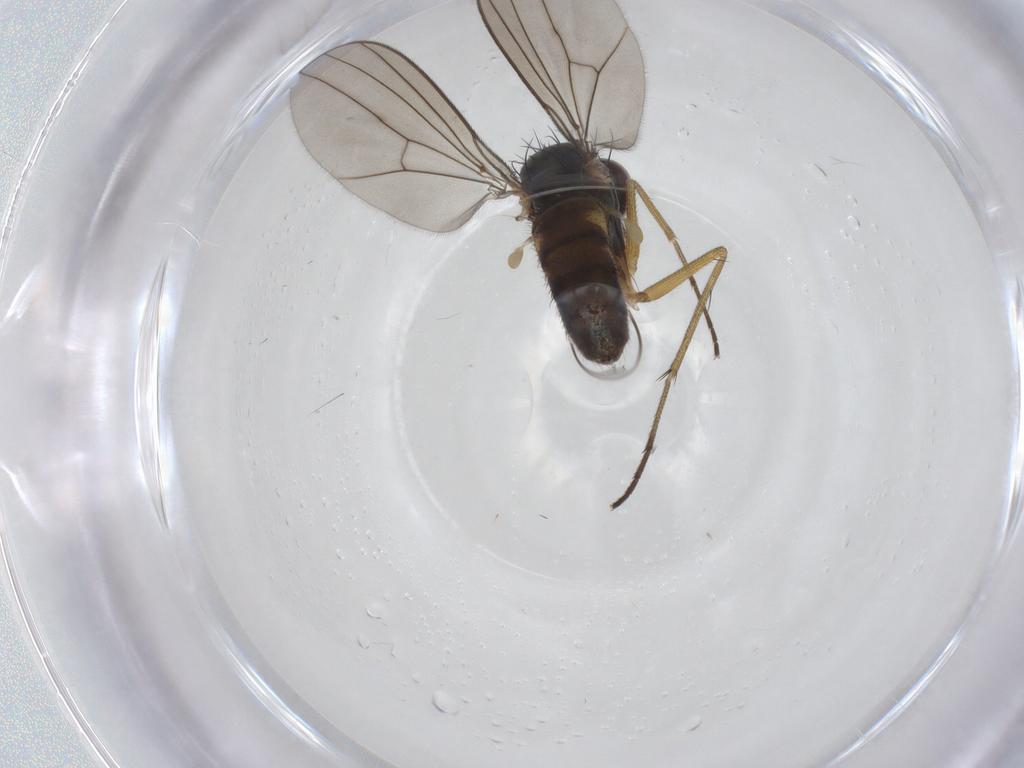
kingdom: Animalia
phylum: Arthropoda
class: Insecta
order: Diptera
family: Dolichopodidae
